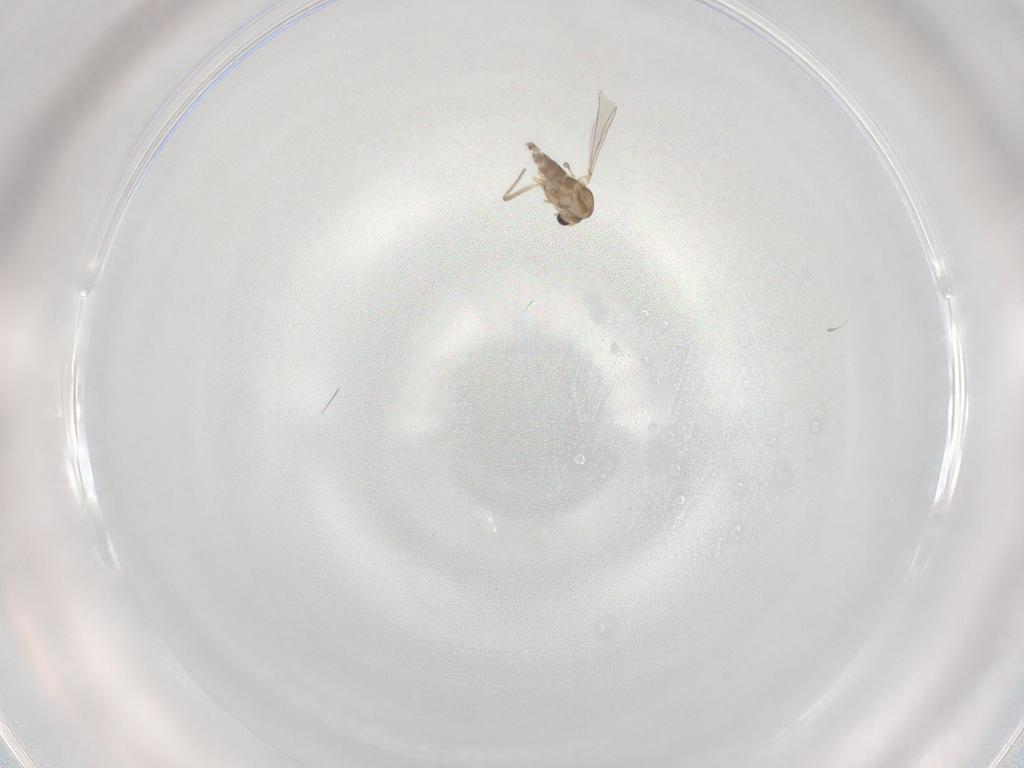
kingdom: Animalia
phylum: Arthropoda
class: Insecta
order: Diptera
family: Chironomidae
